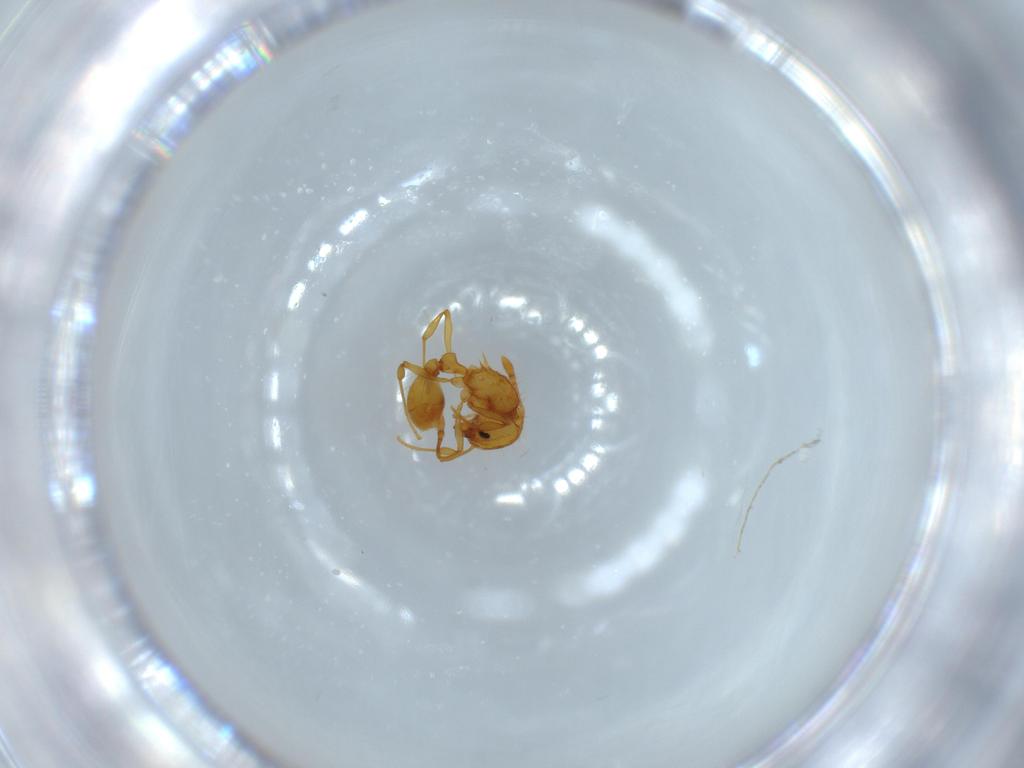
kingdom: Animalia
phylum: Arthropoda
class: Insecta
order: Hymenoptera
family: Formicidae
